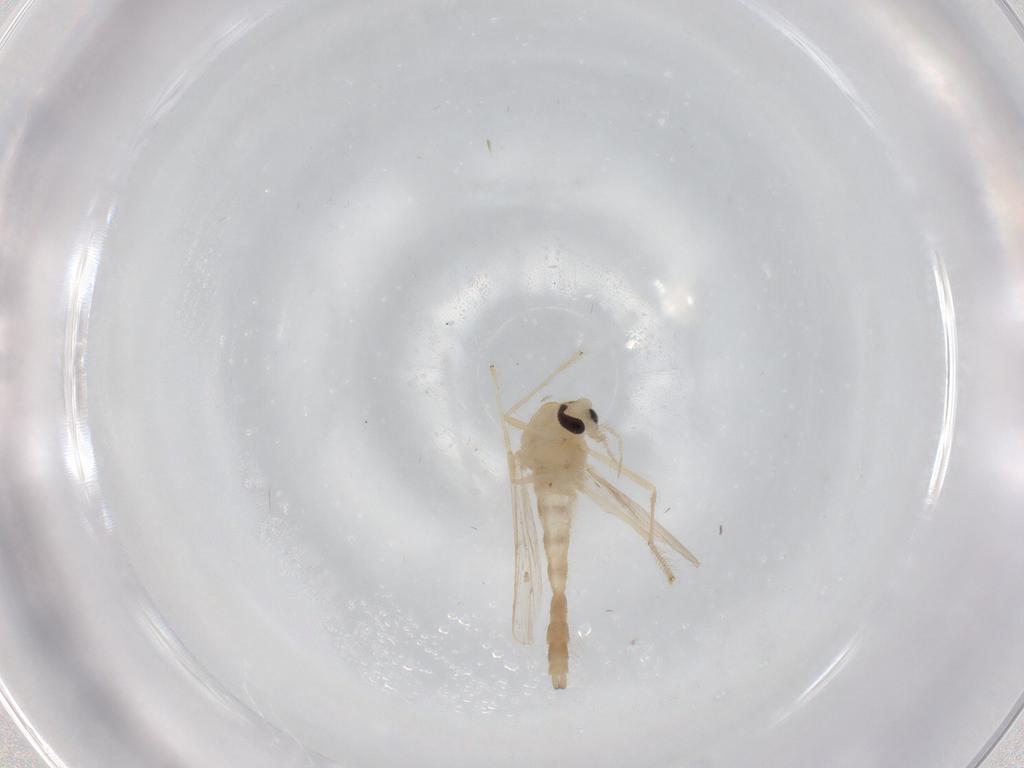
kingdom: Animalia
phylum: Arthropoda
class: Insecta
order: Diptera
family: Chironomidae
